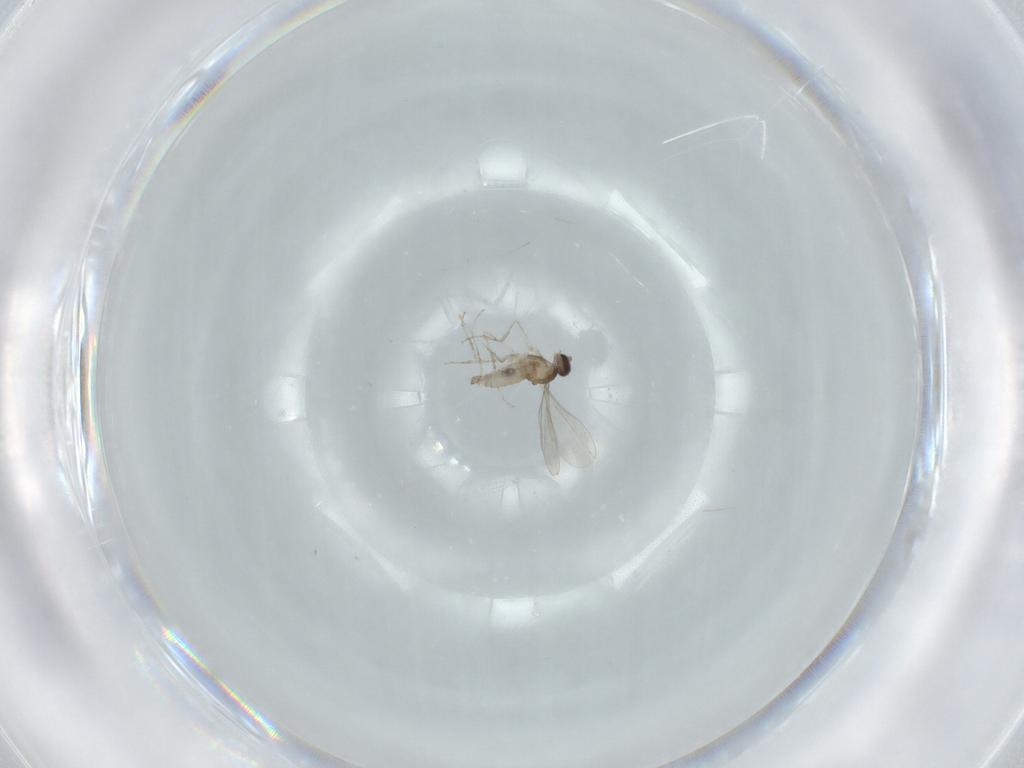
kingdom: Animalia
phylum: Arthropoda
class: Insecta
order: Diptera
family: Cecidomyiidae
